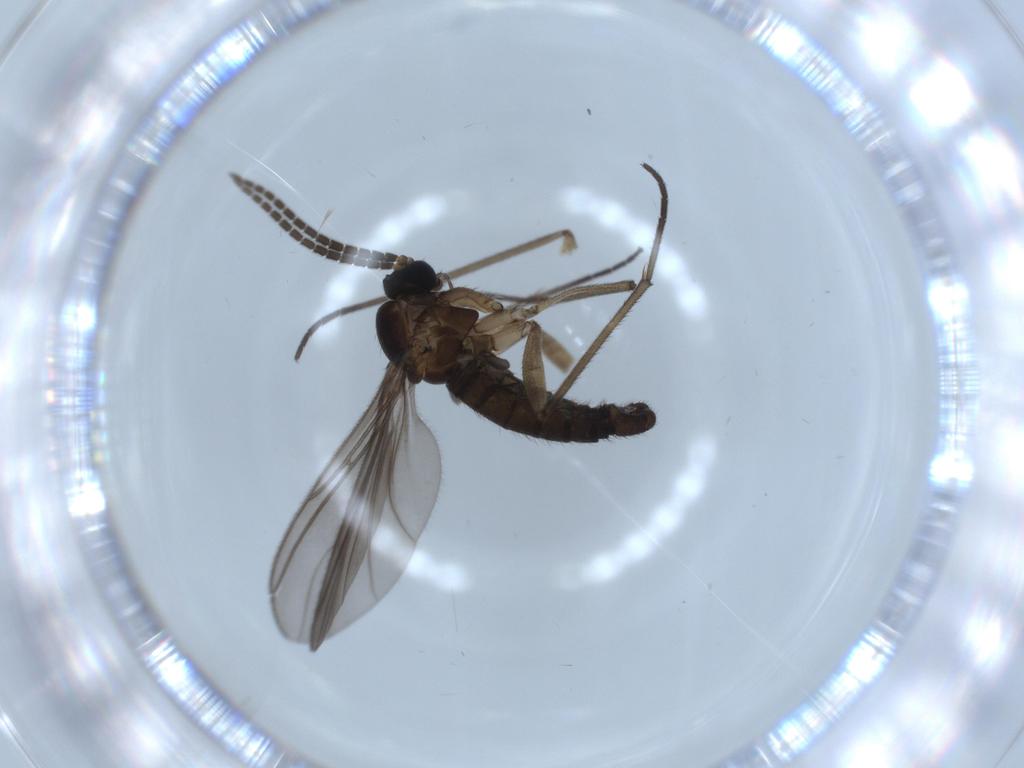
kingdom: Animalia
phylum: Arthropoda
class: Insecta
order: Diptera
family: Sciaridae
